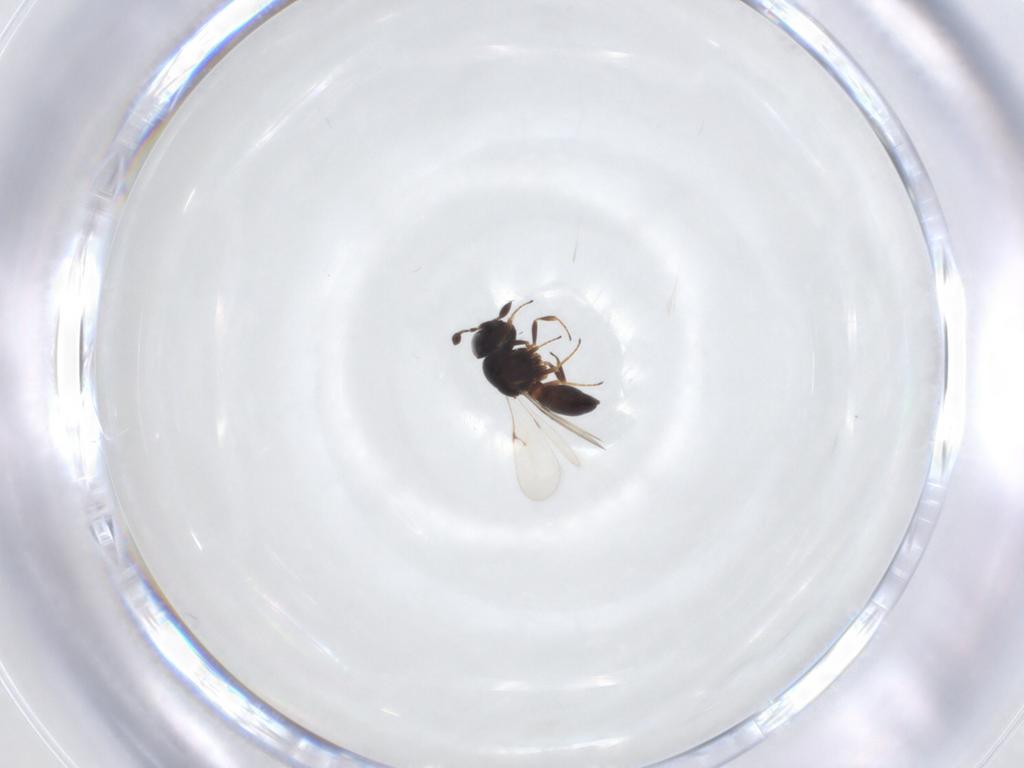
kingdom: Animalia
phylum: Arthropoda
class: Insecta
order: Hymenoptera
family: Scelionidae
